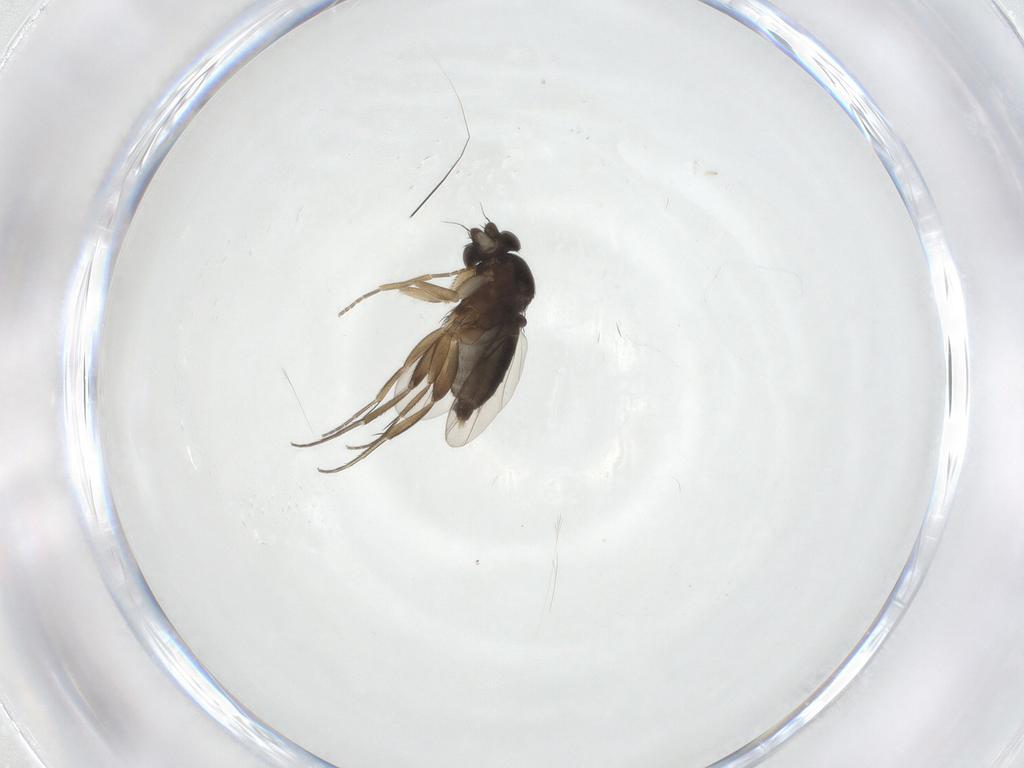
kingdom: Animalia
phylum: Arthropoda
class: Insecta
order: Diptera
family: Phoridae
